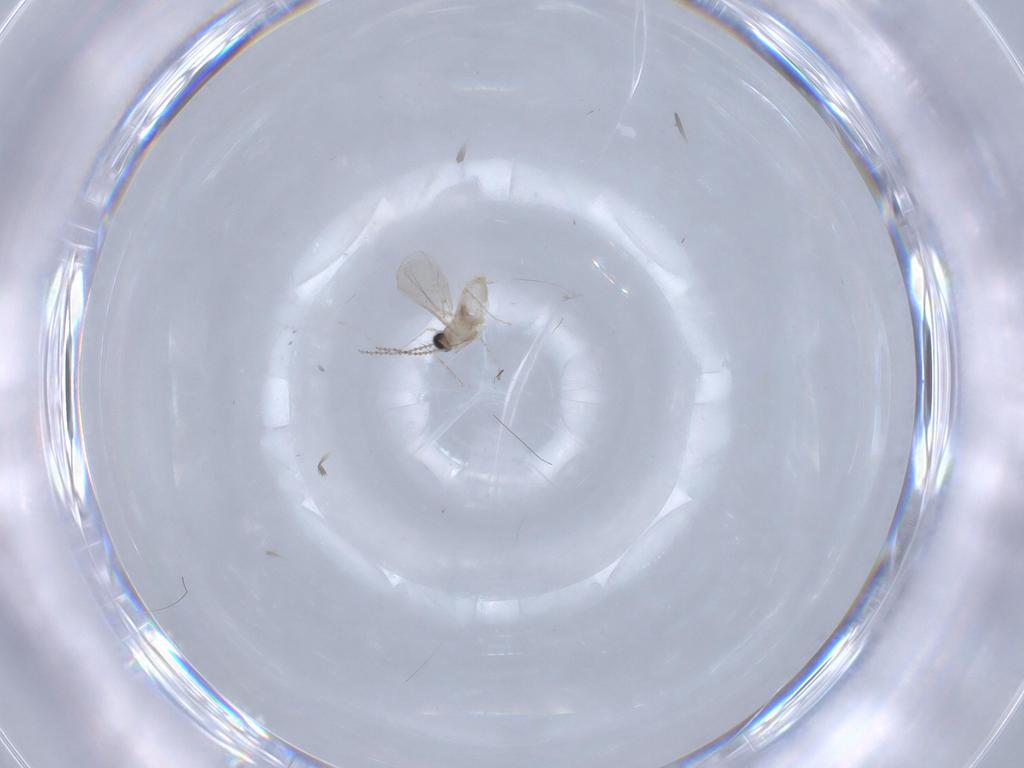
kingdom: Animalia
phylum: Arthropoda
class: Insecta
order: Diptera
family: Chironomidae
